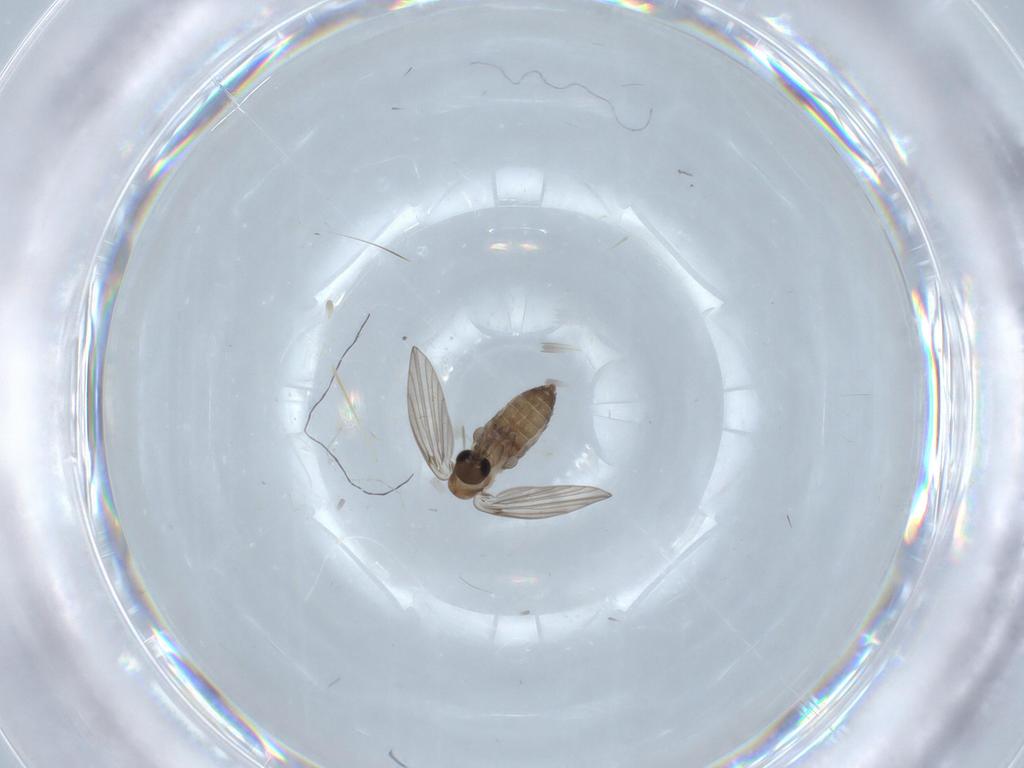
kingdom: Animalia
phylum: Arthropoda
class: Insecta
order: Diptera
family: Psychodidae
